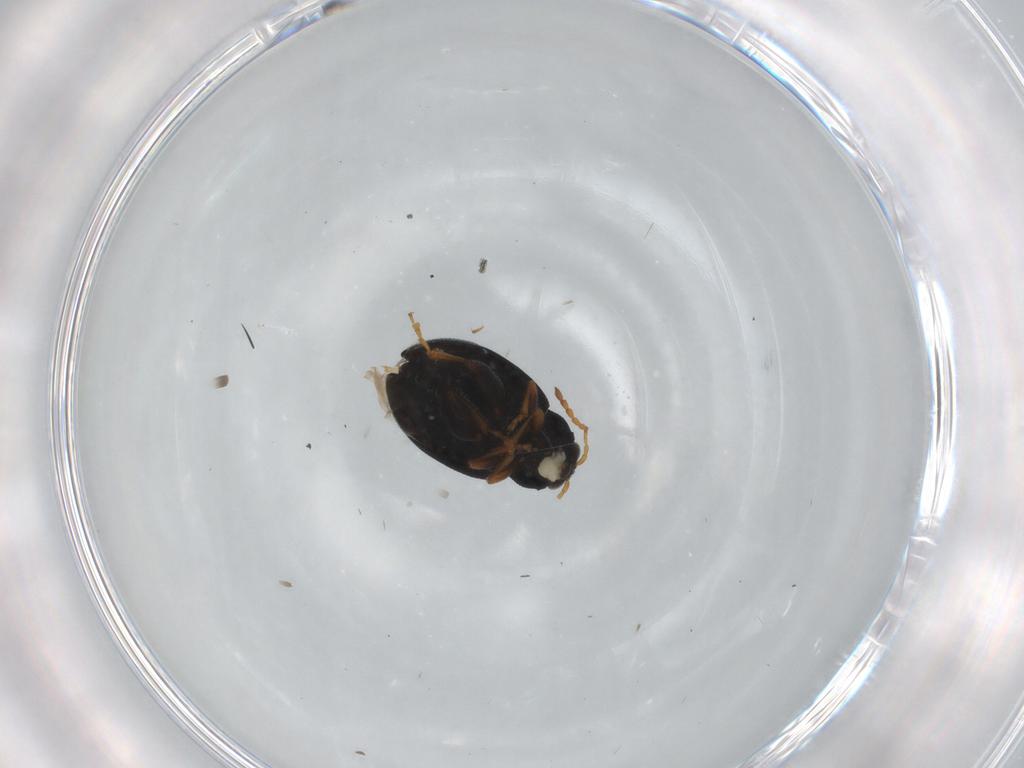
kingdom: Animalia
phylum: Arthropoda
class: Insecta
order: Coleoptera
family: Chrysomelidae
